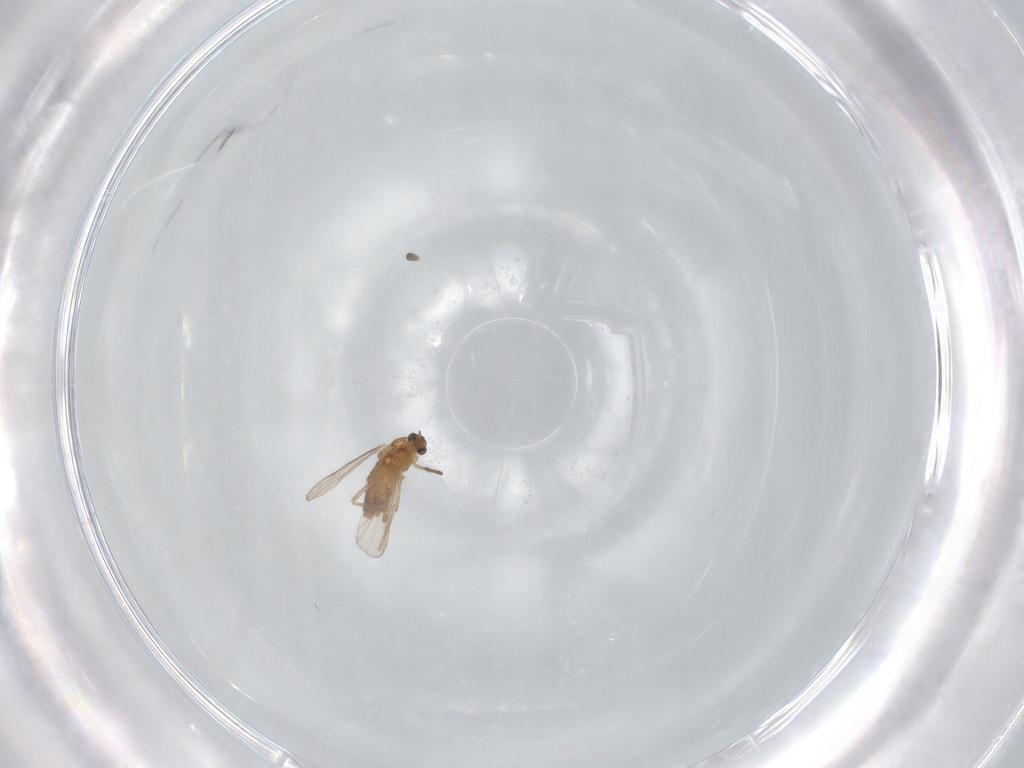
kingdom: Animalia
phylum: Arthropoda
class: Insecta
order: Diptera
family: Chironomidae
